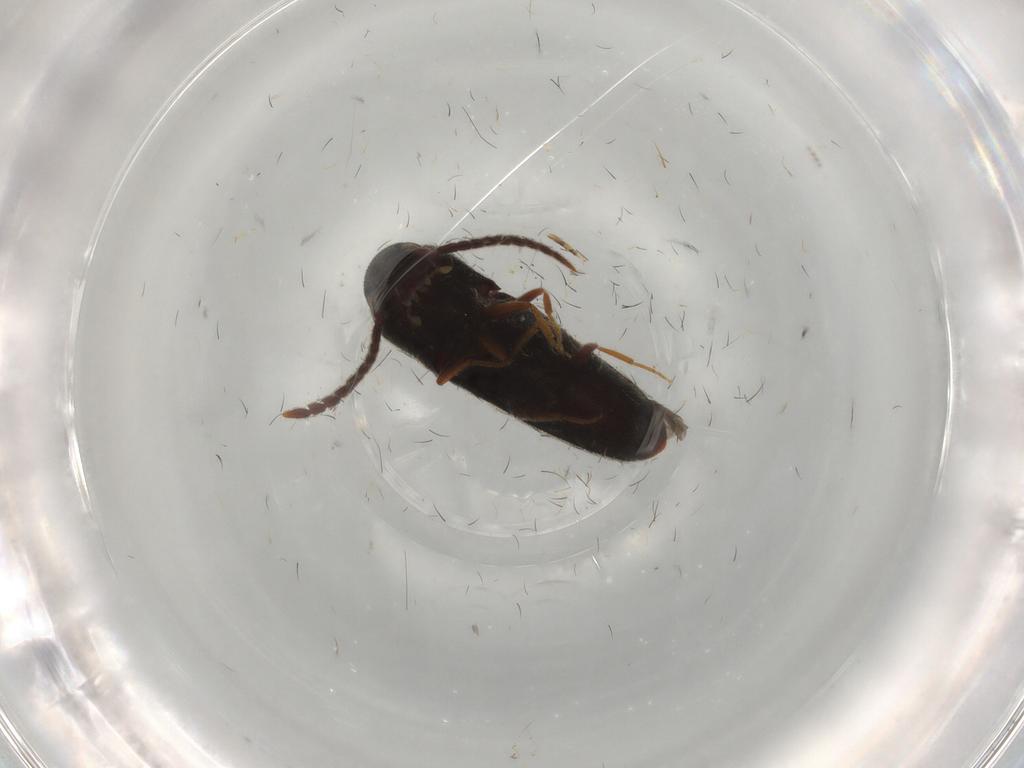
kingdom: Animalia
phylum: Arthropoda
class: Insecta
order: Coleoptera
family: Eucnemidae
